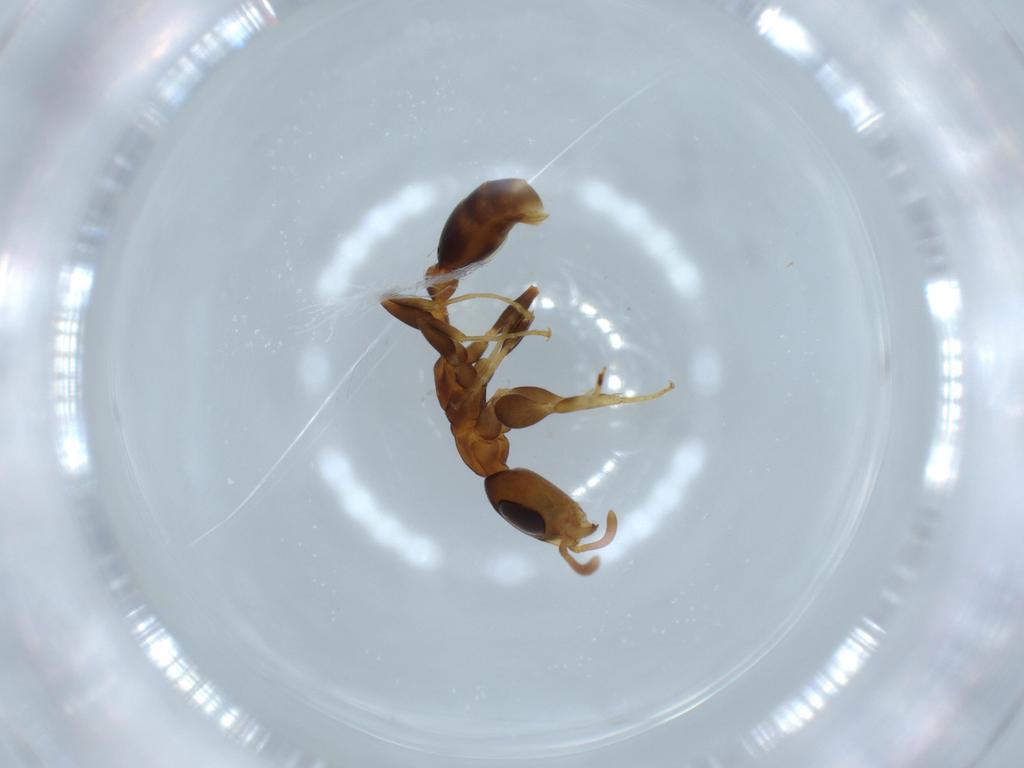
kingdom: Animalia
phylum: Arthropoda
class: Insecta
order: Hymenoptera
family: Formicidae
